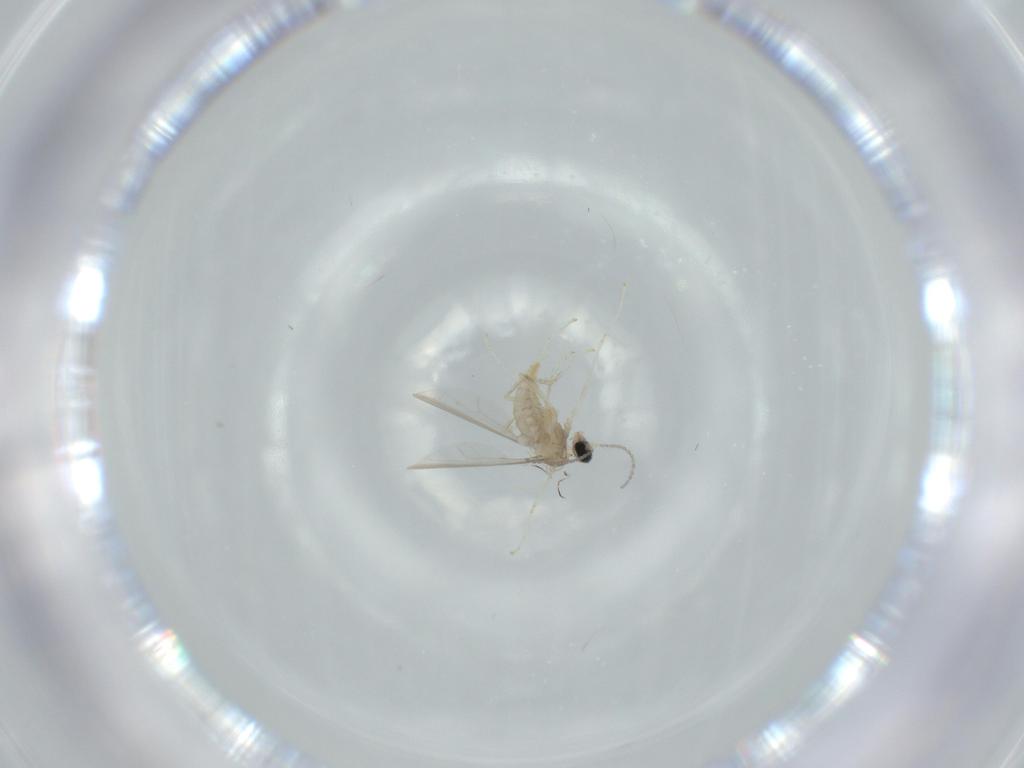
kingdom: Animalia
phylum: Arthropoda
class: Insecta
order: Diptera
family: Cecidomyiidae
